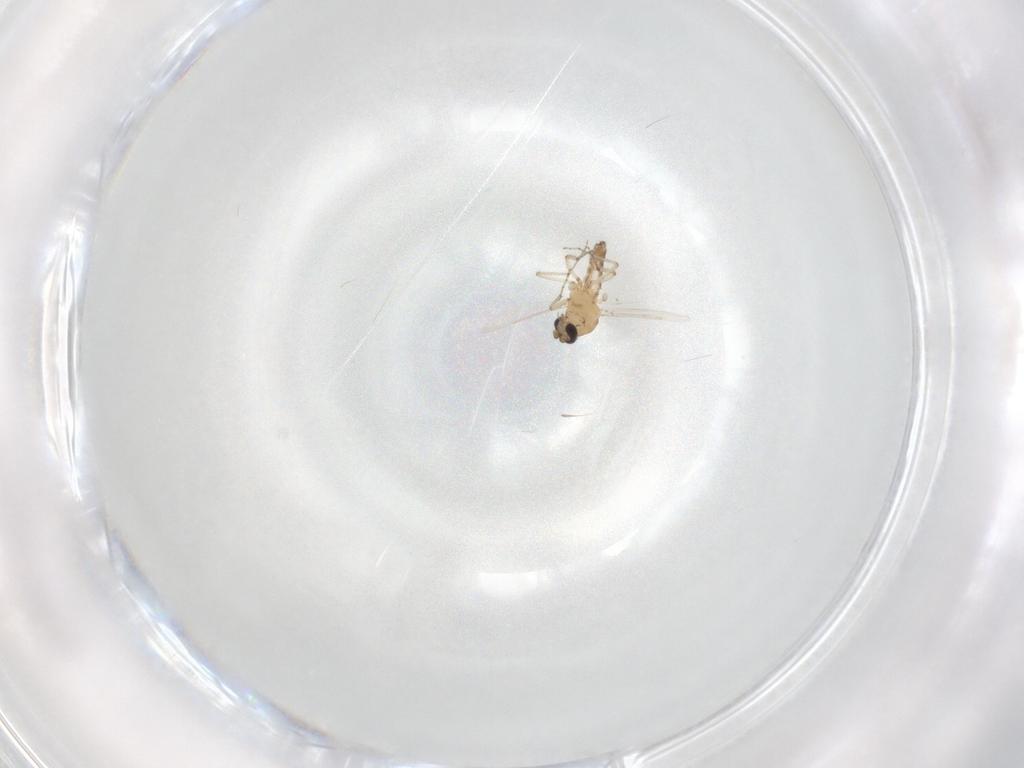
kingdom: Animalia
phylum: Arthropoda
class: Insecta
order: Diptera
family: Ceratopogonidae
